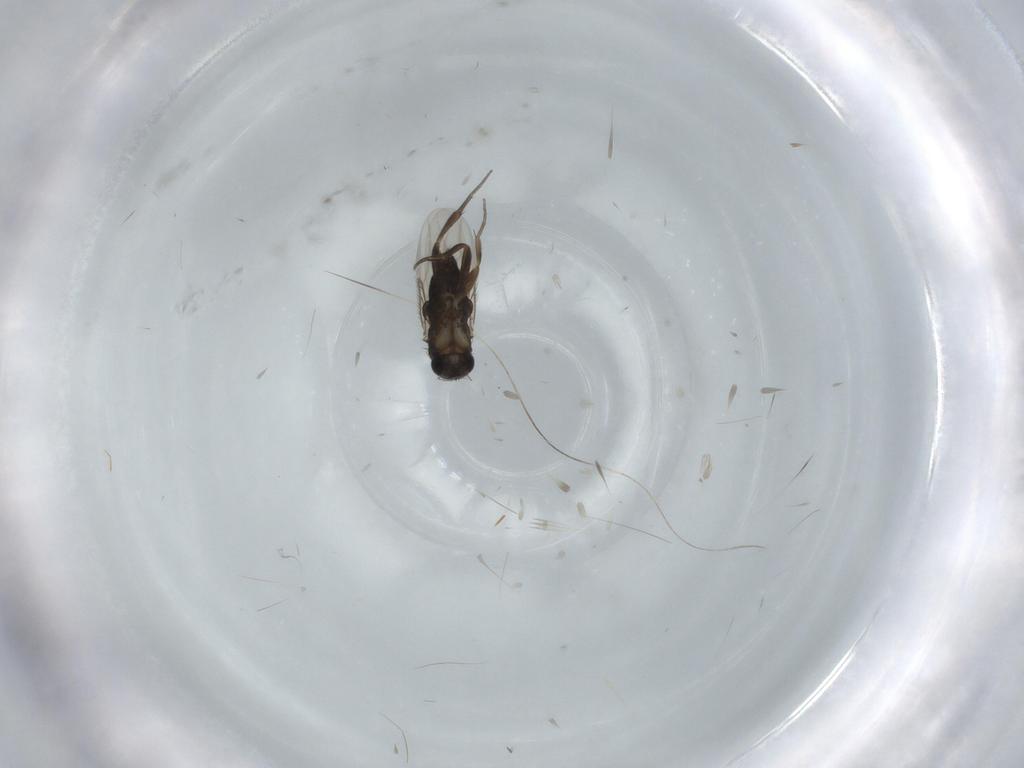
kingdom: Animalia
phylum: Arthropoda
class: Insecta
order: Diptera
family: Phoridae
